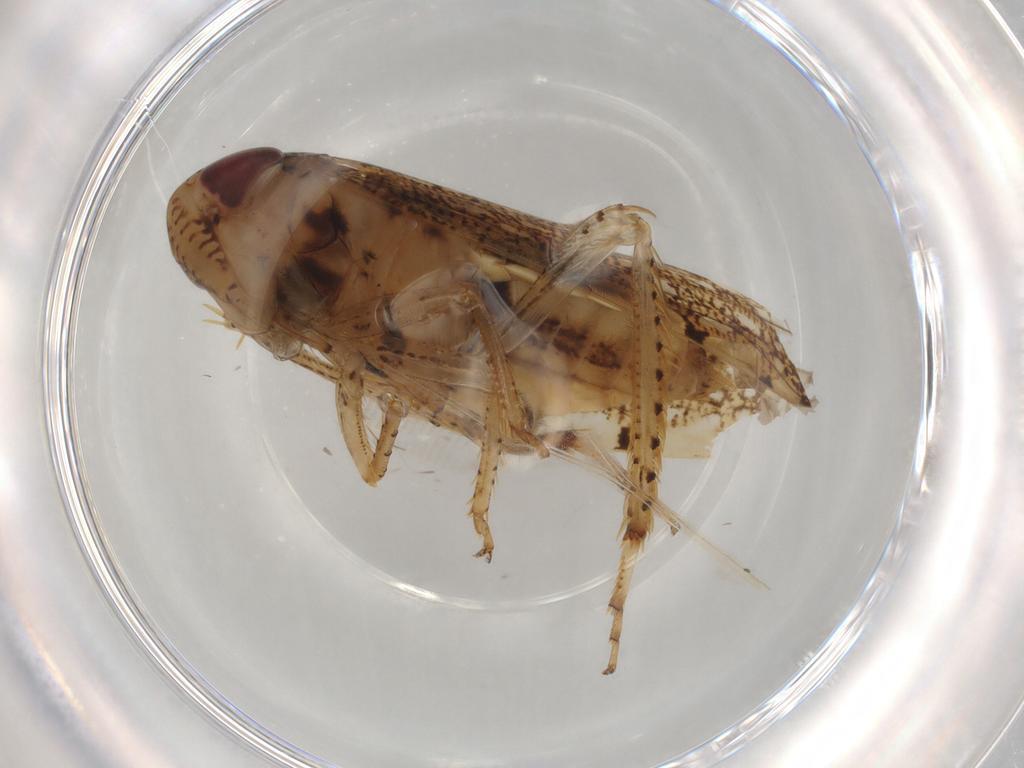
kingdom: Animalia
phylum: Arthropoda
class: Insecta
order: Hemiptera
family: Cicadellidae
